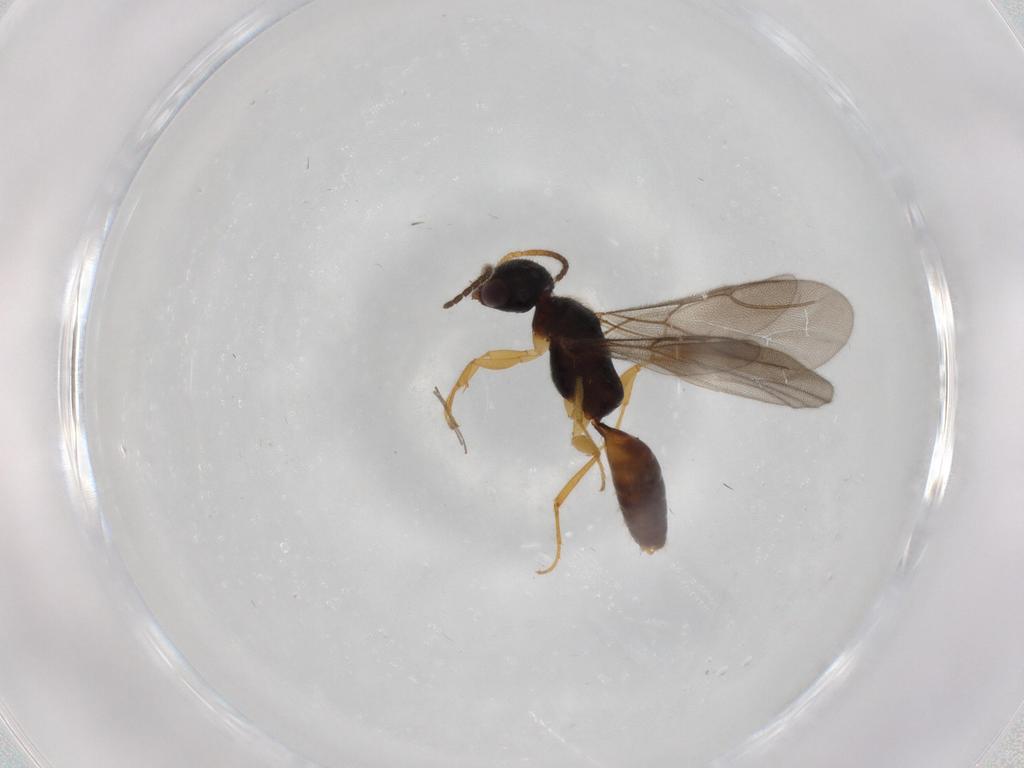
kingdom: Animalia
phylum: Arthropoda
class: Insecta
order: Hymenoptera
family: Bethylidae
